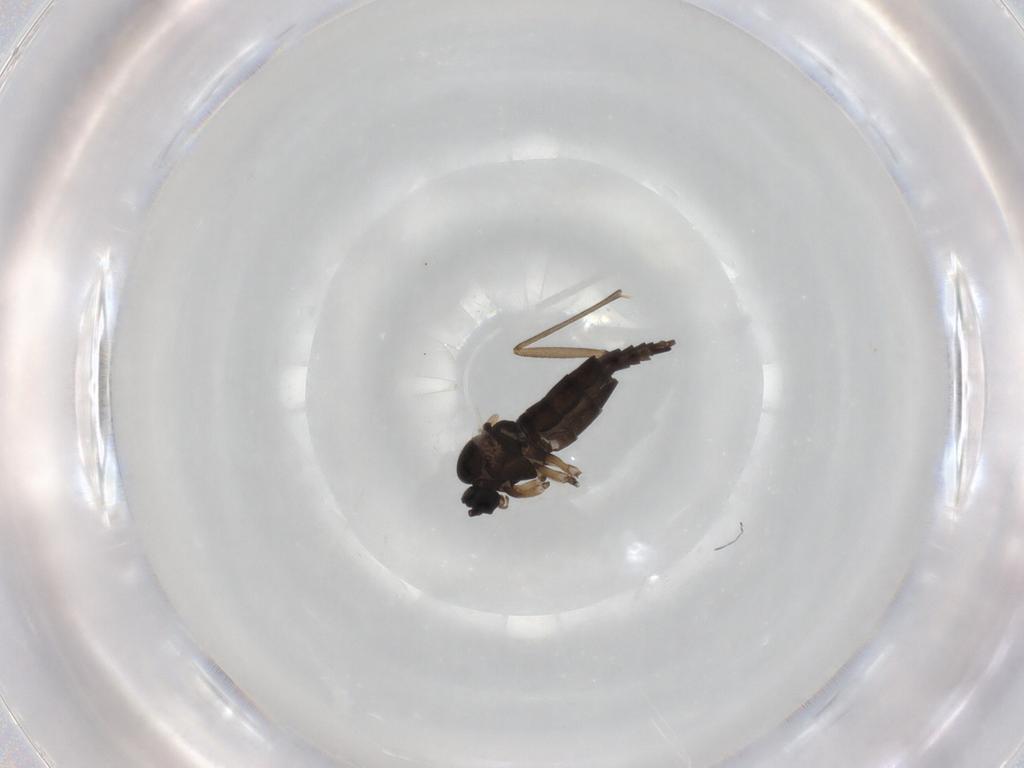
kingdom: Animalia
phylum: Arthropoda
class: Insecta
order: Diptera
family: Sciaridae
